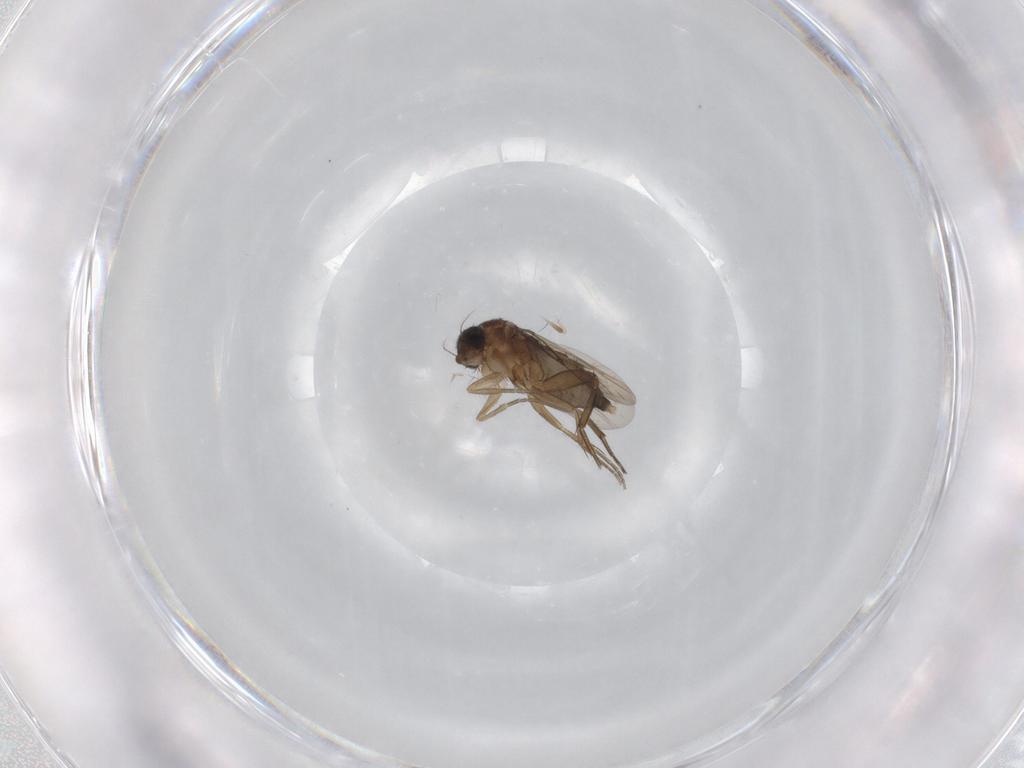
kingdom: Animalia
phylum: Arthropoda
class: Insecta
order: Diptera
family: Phoridae
